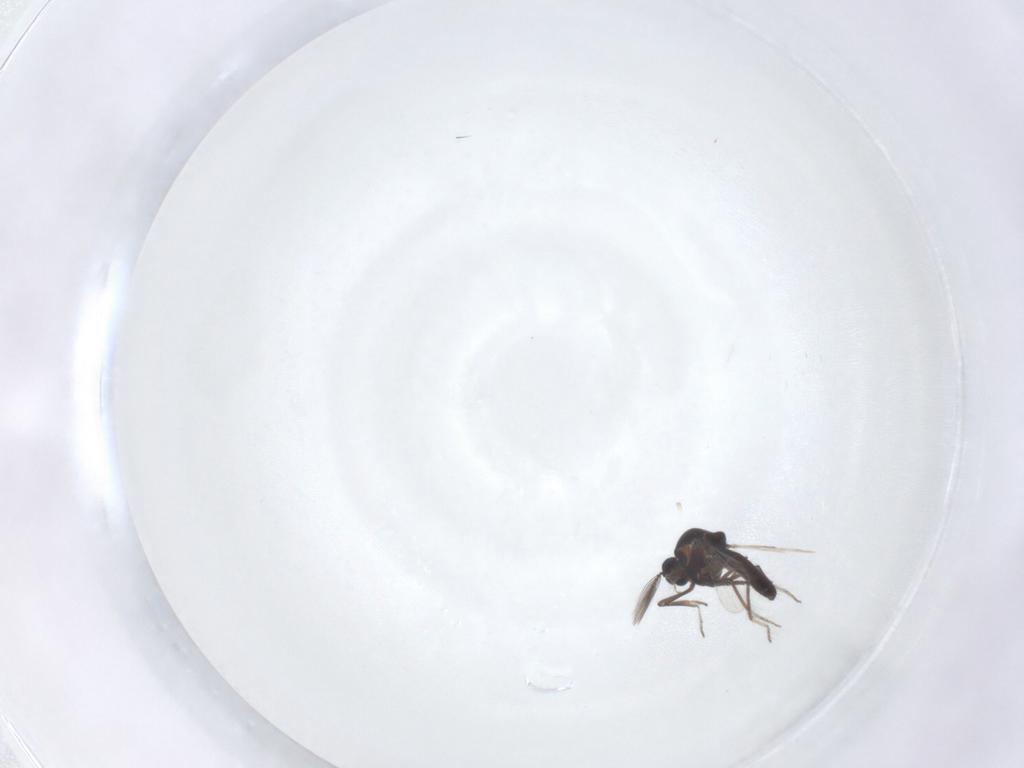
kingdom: Animalia
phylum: Arthropoda
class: Insecta
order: Diptera
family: Ceratopogonidae
